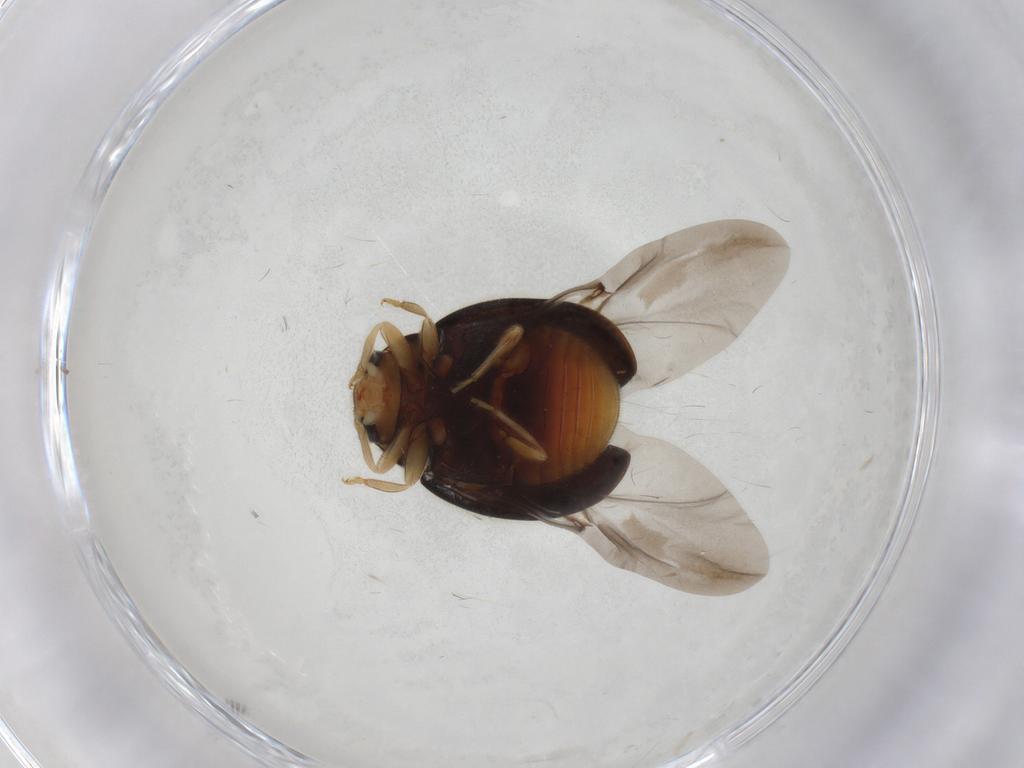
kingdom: Animalia
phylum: Arthropoda
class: Insecta
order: Coleoptera
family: Coccinellidae
